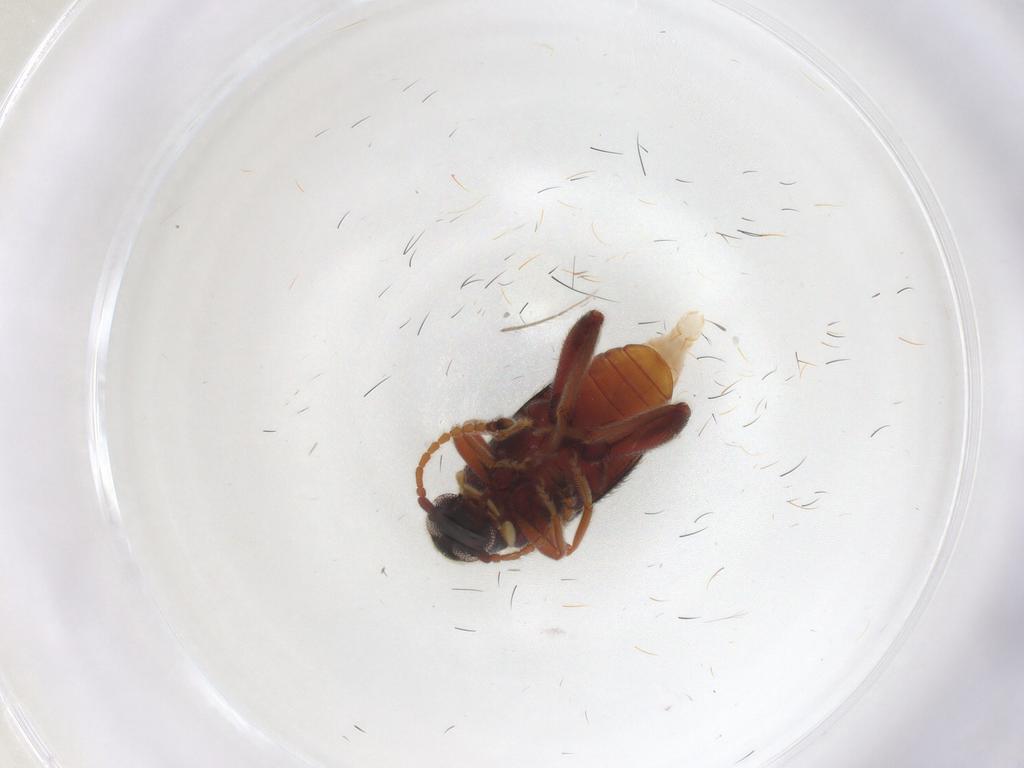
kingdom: Animalia
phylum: Arthropoda
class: Insecta
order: Coleoptera
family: Aderidae
